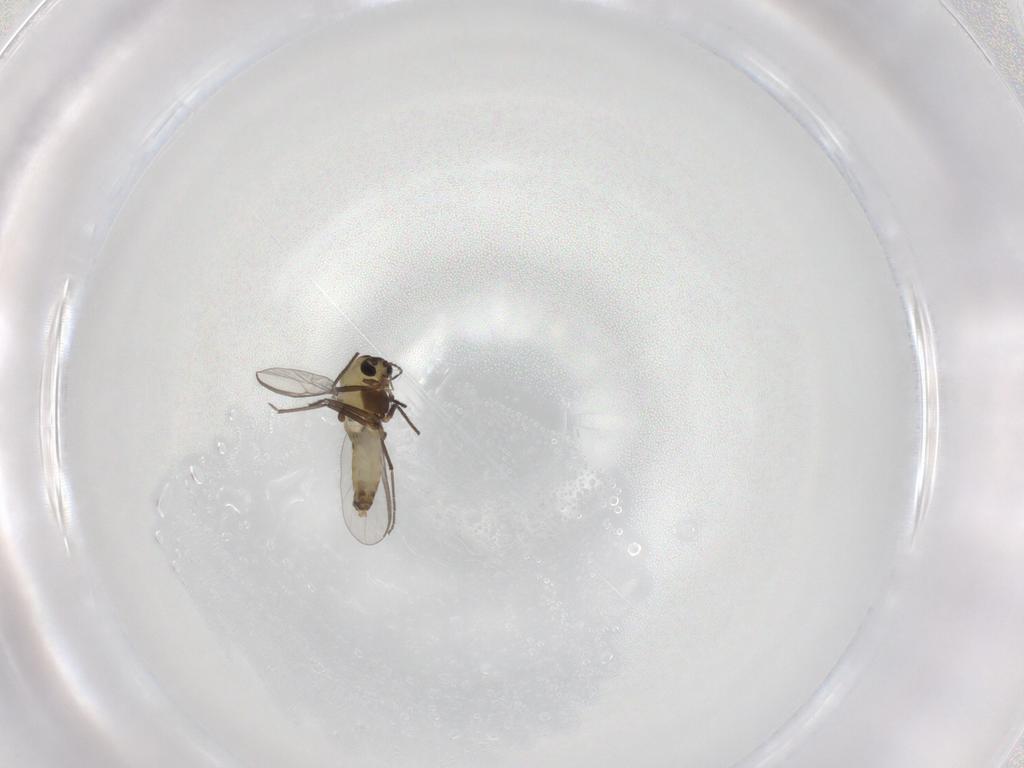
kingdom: Animalia
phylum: Arthropoda
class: Insecta
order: Diptera
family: Chironomidae
